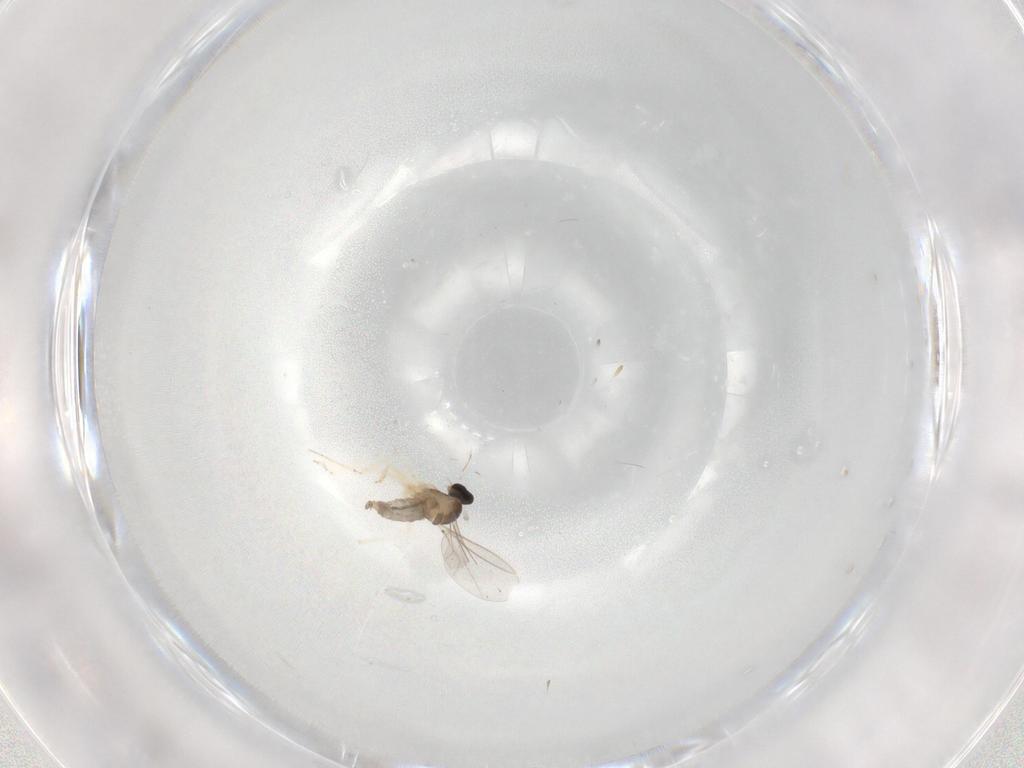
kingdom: Animalia
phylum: Arthropoda
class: Insecta
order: Diptera
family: Cecidomyiidae
